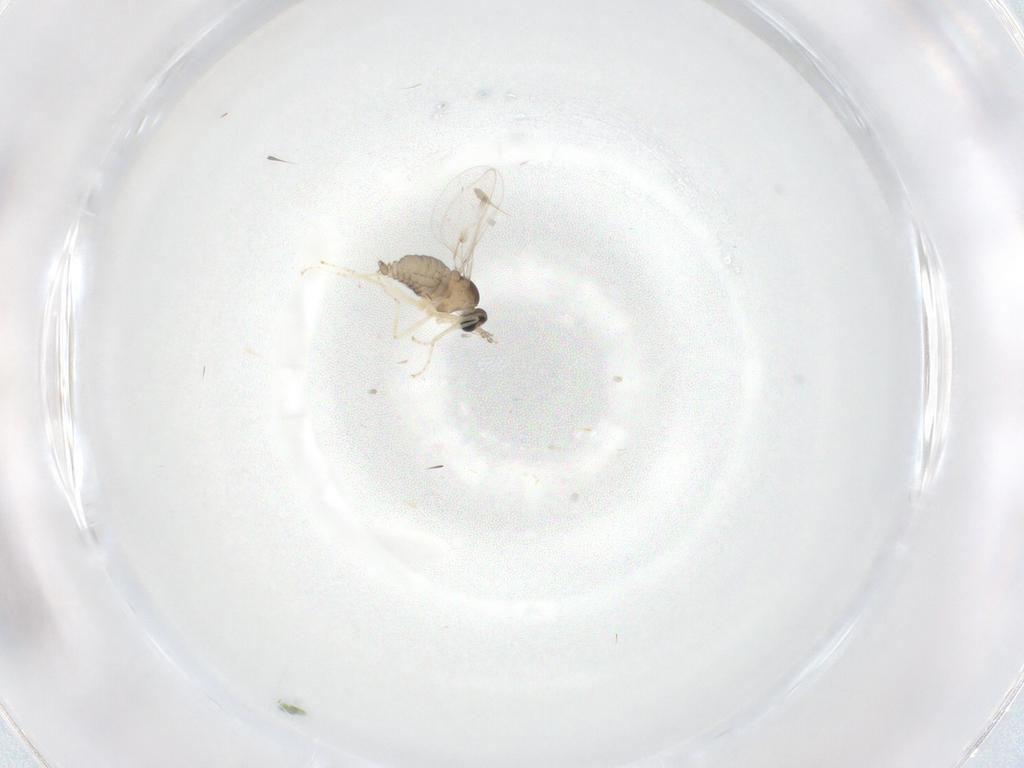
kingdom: Animalia
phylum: Arthropoda
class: Insecta
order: Diptera
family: Cecidomyiidae
